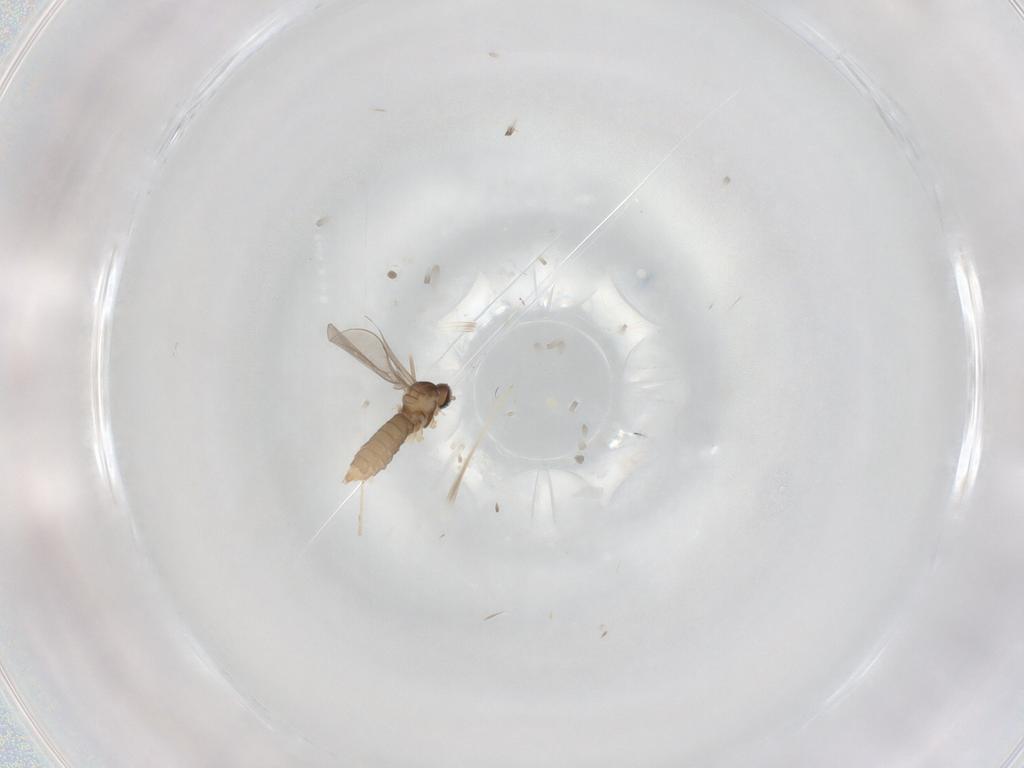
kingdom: Animalia
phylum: Arthropoda
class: Insecta
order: Diptera
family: Cecidomyiidae
